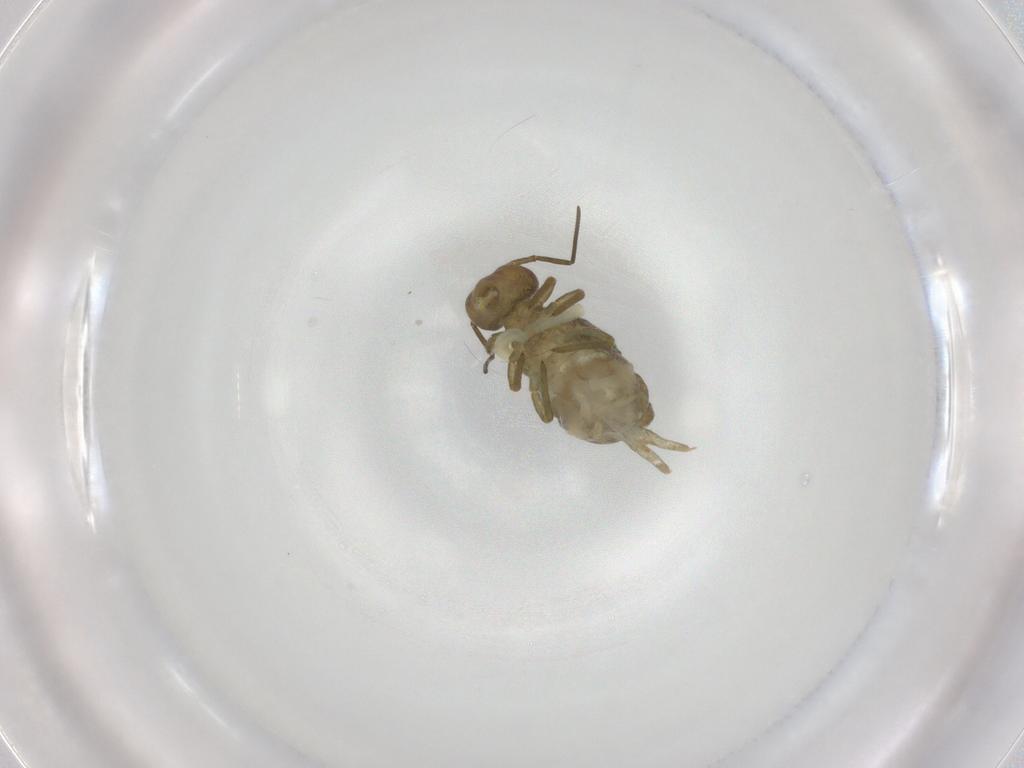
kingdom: Animalia
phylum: Arthropoda
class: Collembola
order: Symphypleona
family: Sminthuridae
